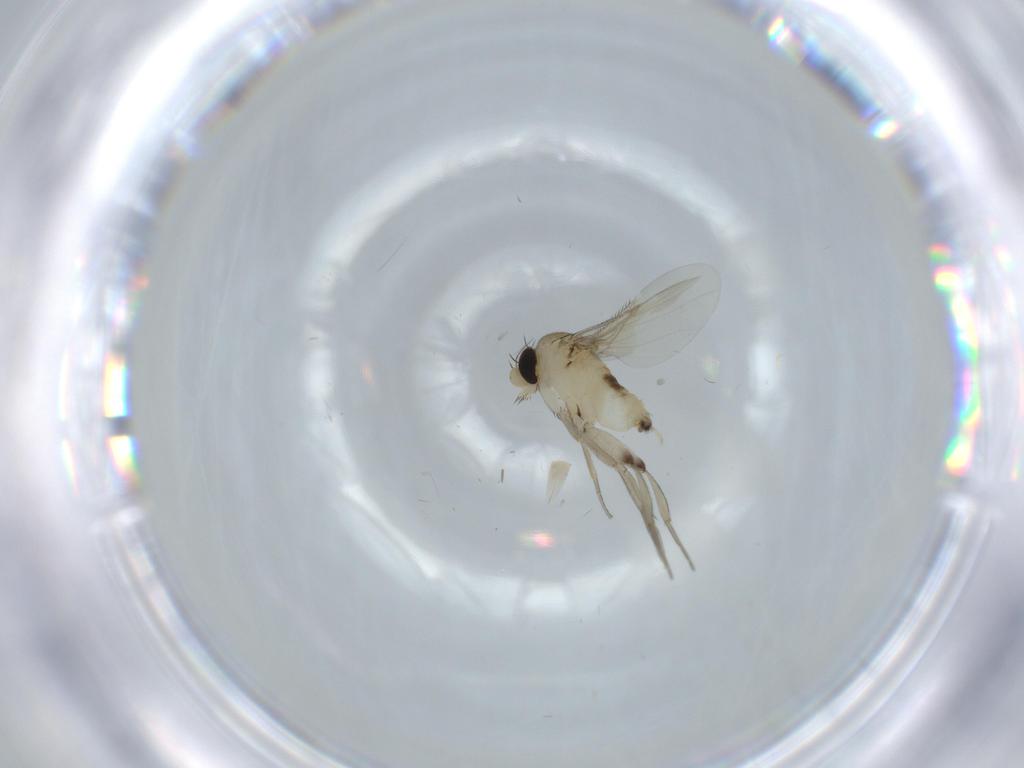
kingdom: Animalia
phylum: Arthropoda
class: Insecta
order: Diptera
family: Phoridae
